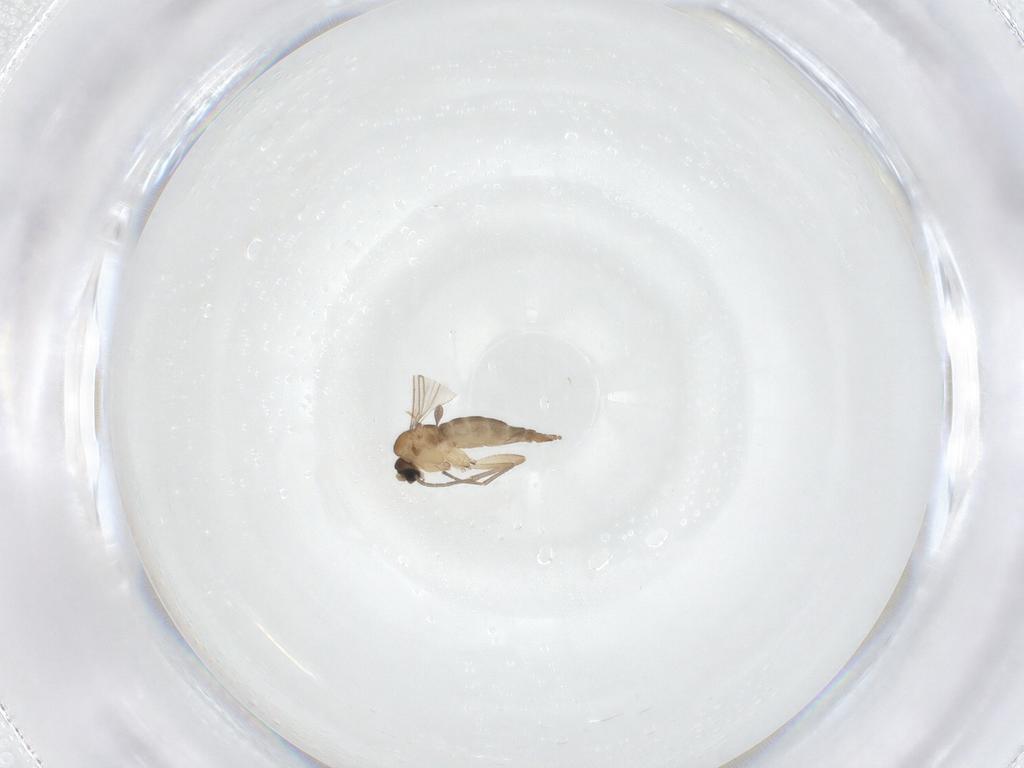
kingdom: Animalia
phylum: Arthropoda
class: Insecta
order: Diptera
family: Sciaridae
